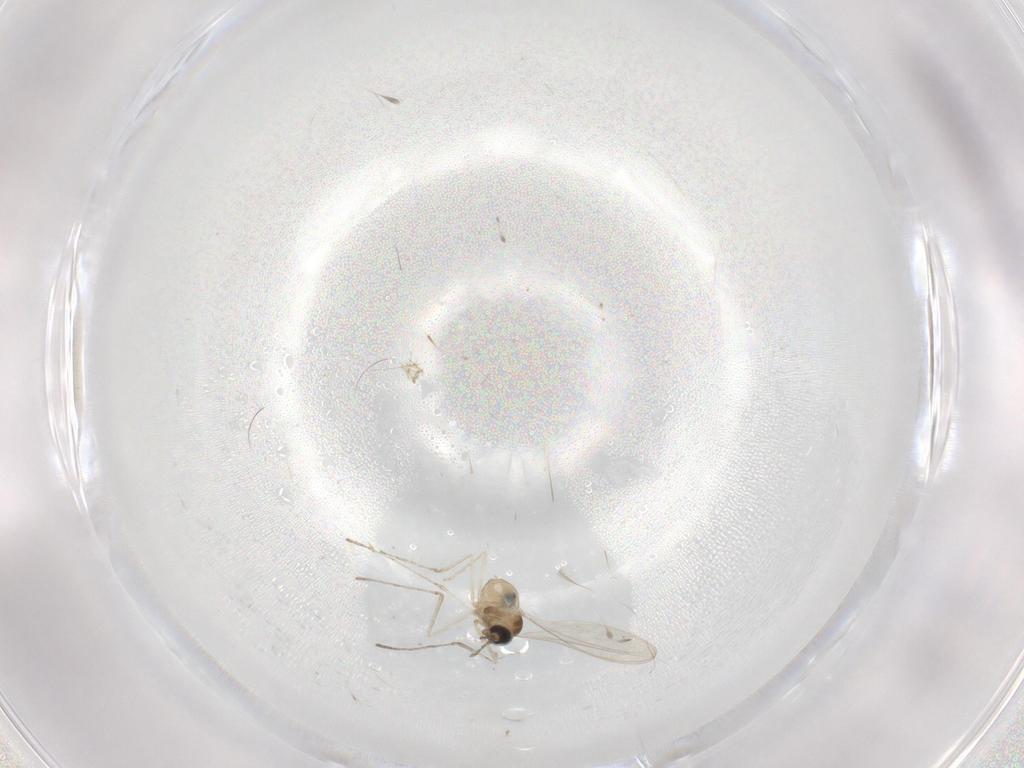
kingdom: Animalia
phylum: Arthropoda
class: Insecta
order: Diptera
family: Cecidomyiidae
